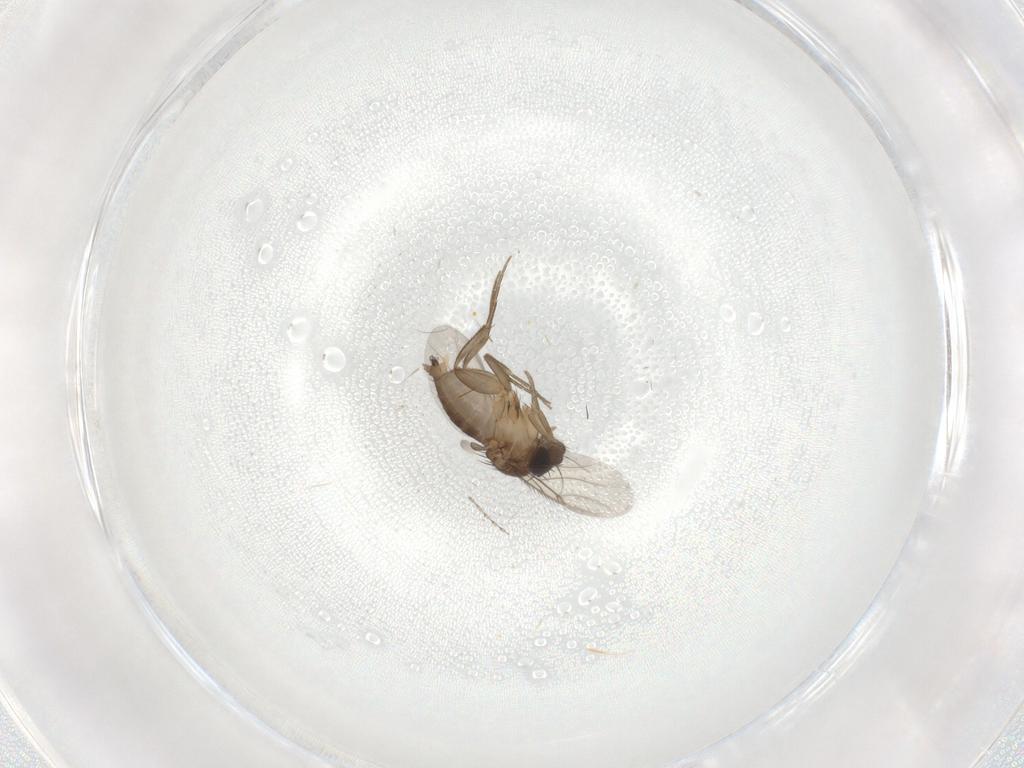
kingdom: Animalia
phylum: Arthropoda
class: Insecta
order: Diptera
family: Phoridae
